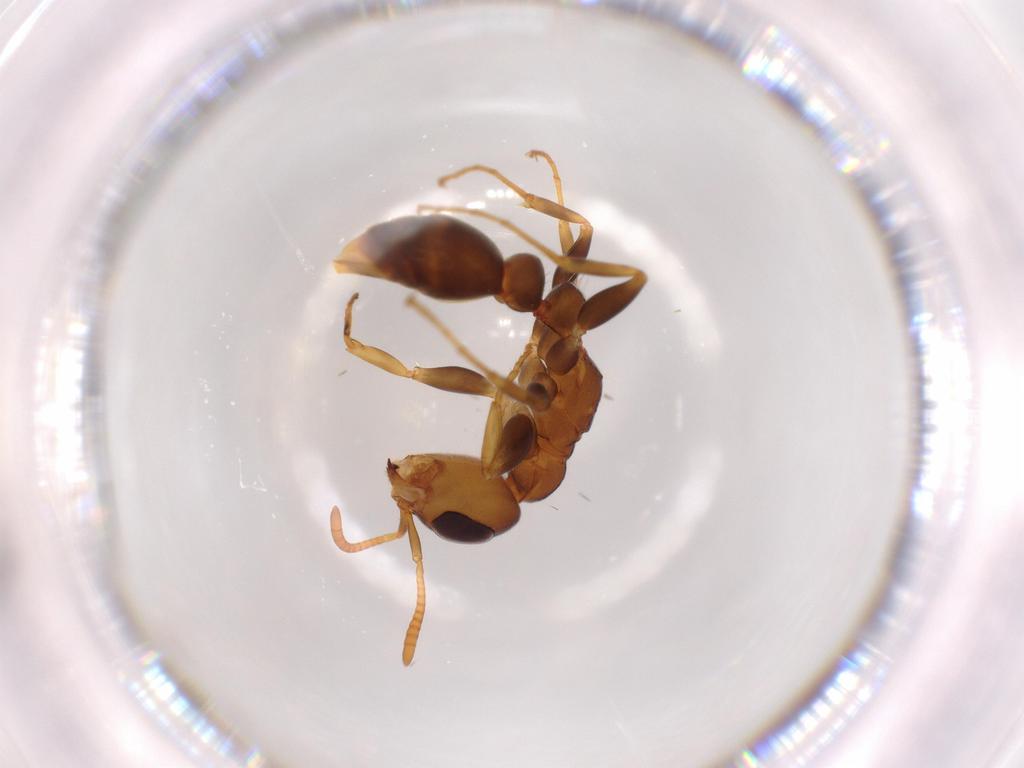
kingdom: Animalia
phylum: Arthropoda
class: Insecta
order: Hymenoptera
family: Formicidae
